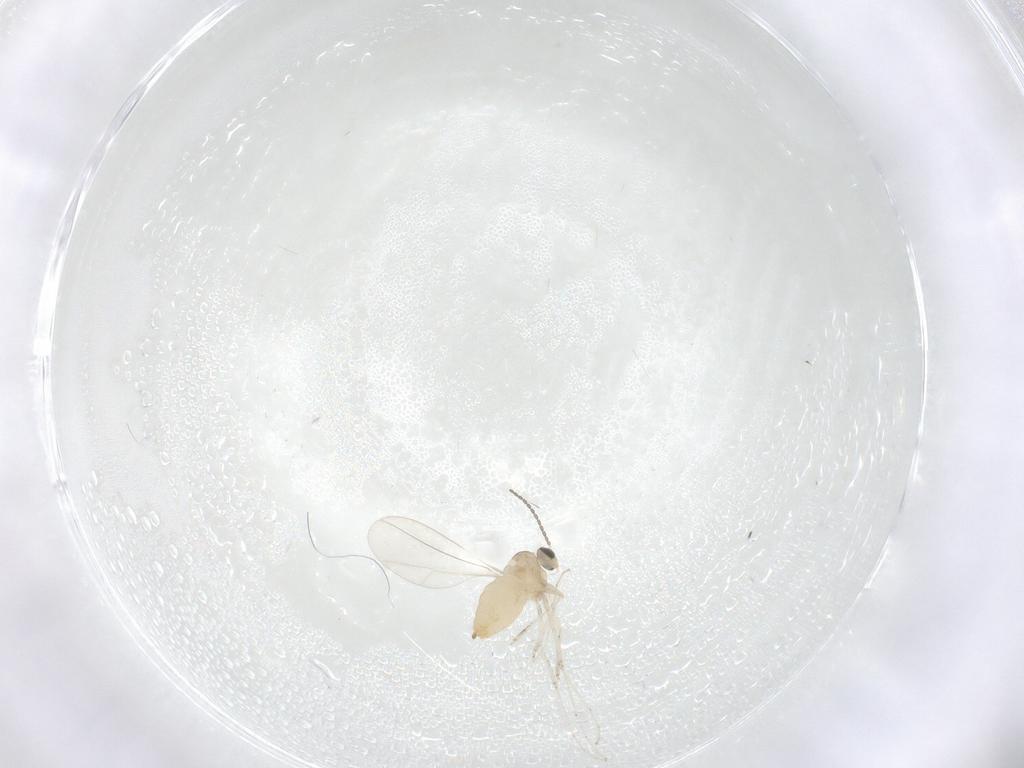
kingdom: Animalia
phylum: Arthropoda
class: Insecta
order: Diptera
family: Cecidomyiidae
